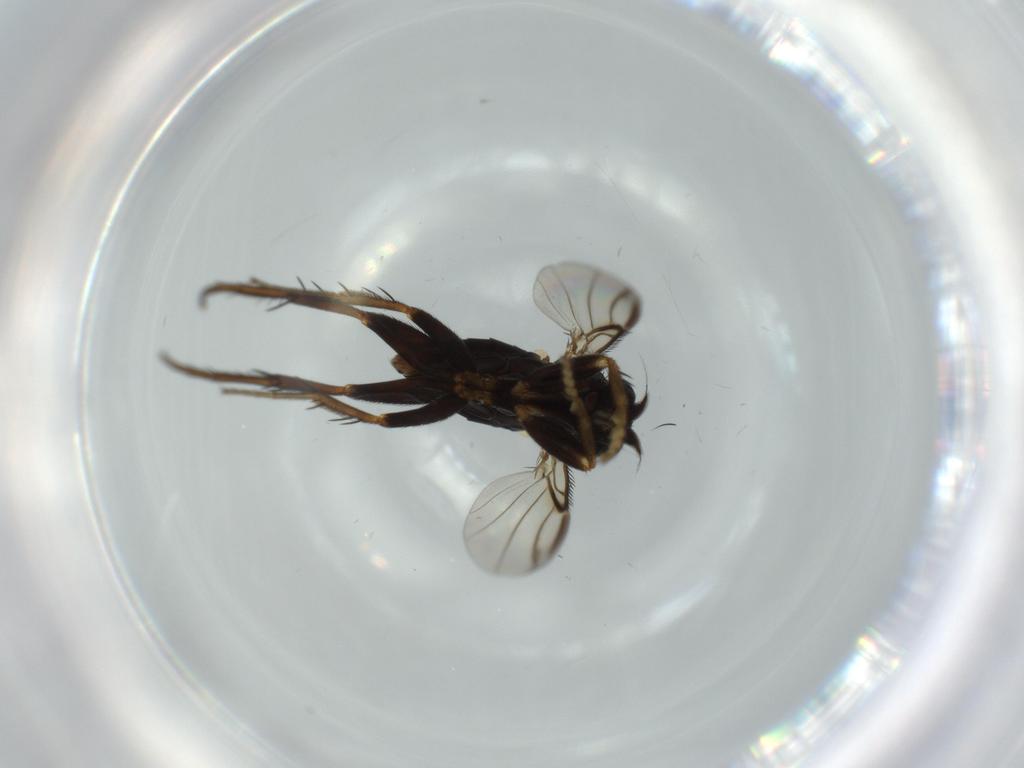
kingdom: Animalia
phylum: Arthropoda
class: Insecta
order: Diptera
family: Phoridae
